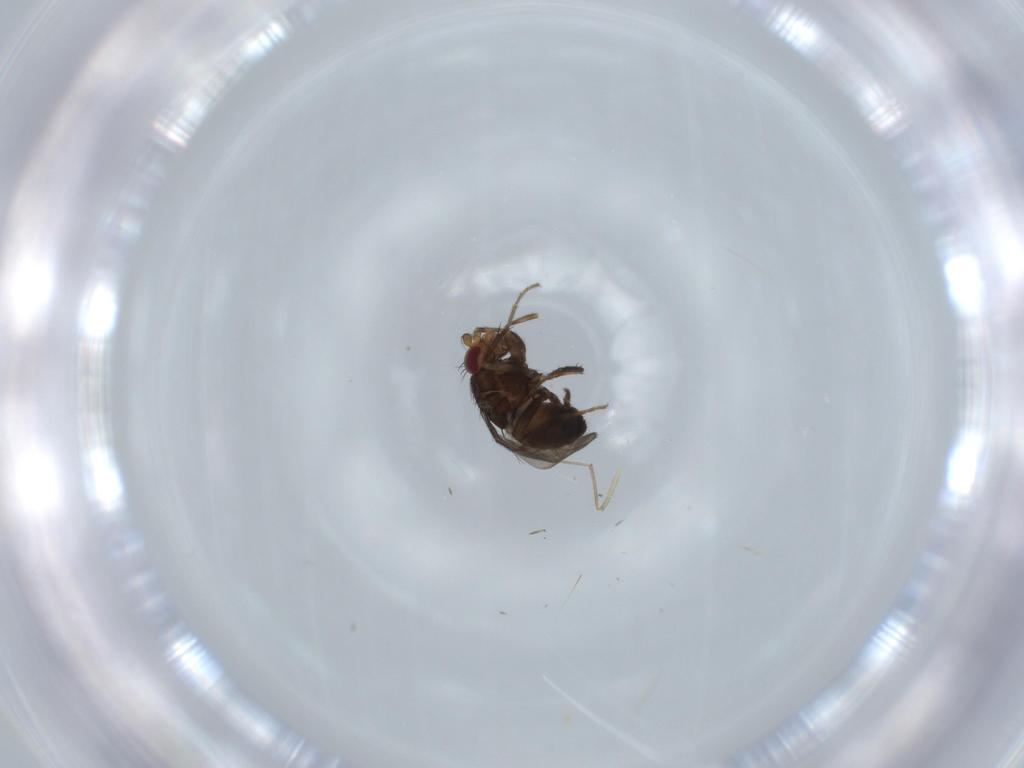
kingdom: Animalia
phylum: Arthropoda
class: Insecta
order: Diptera
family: Chironomidae
